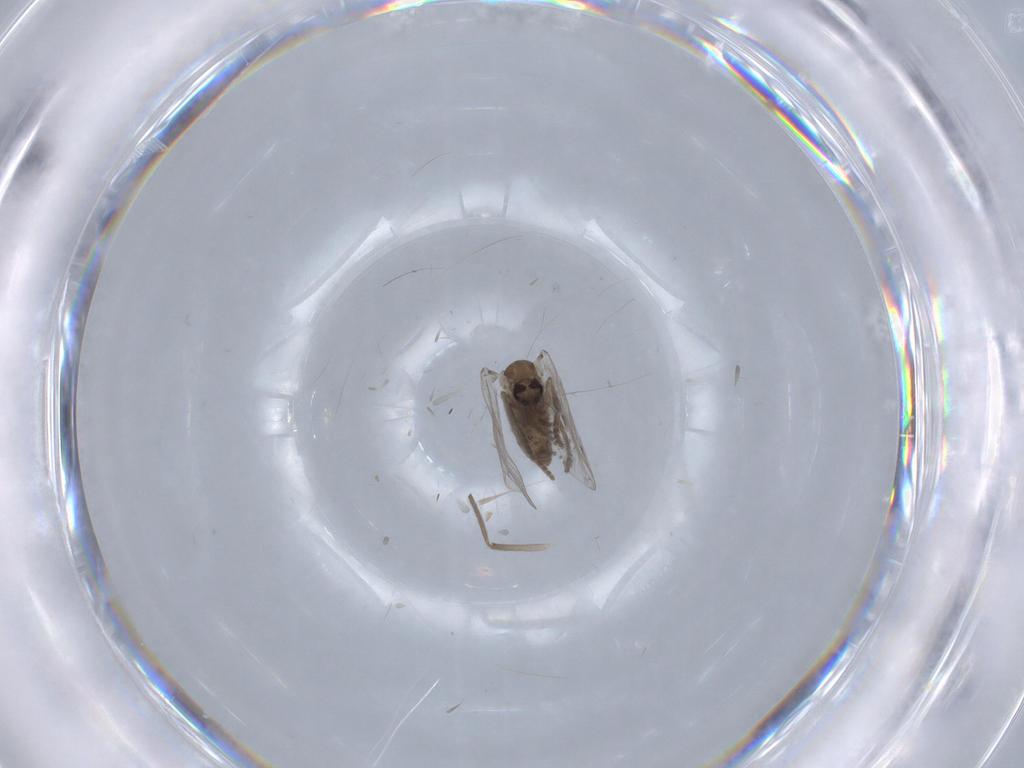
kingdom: Animalia
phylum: Arthropoda
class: Insecta
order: Diptera
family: Psychodidae
